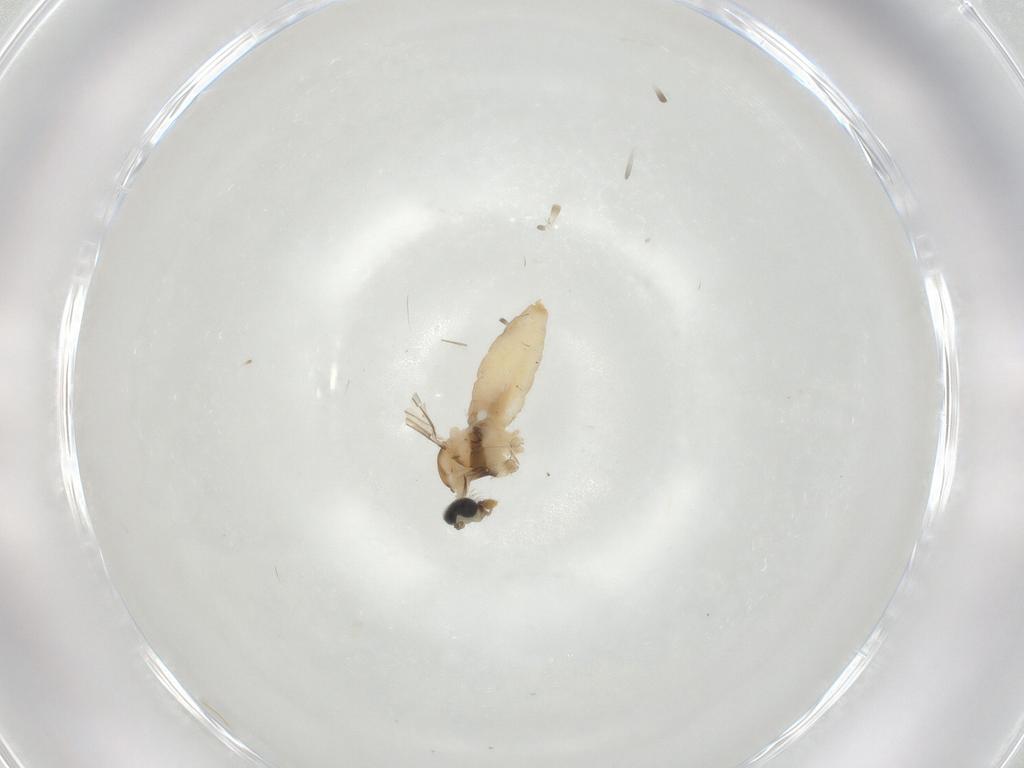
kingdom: Animalia
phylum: Arthropoda
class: Insecta
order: Diptera
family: Cecidomyiidae
